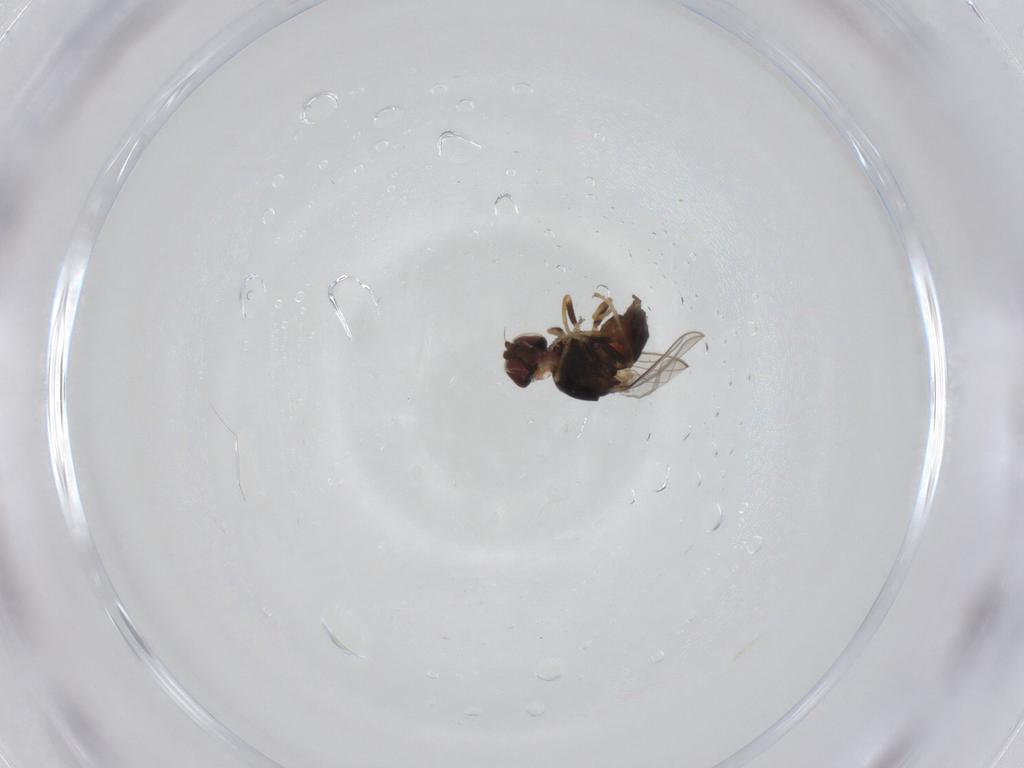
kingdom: Animalia
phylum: Arthropoda
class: Insecta
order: Diptera
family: Chloropidae
